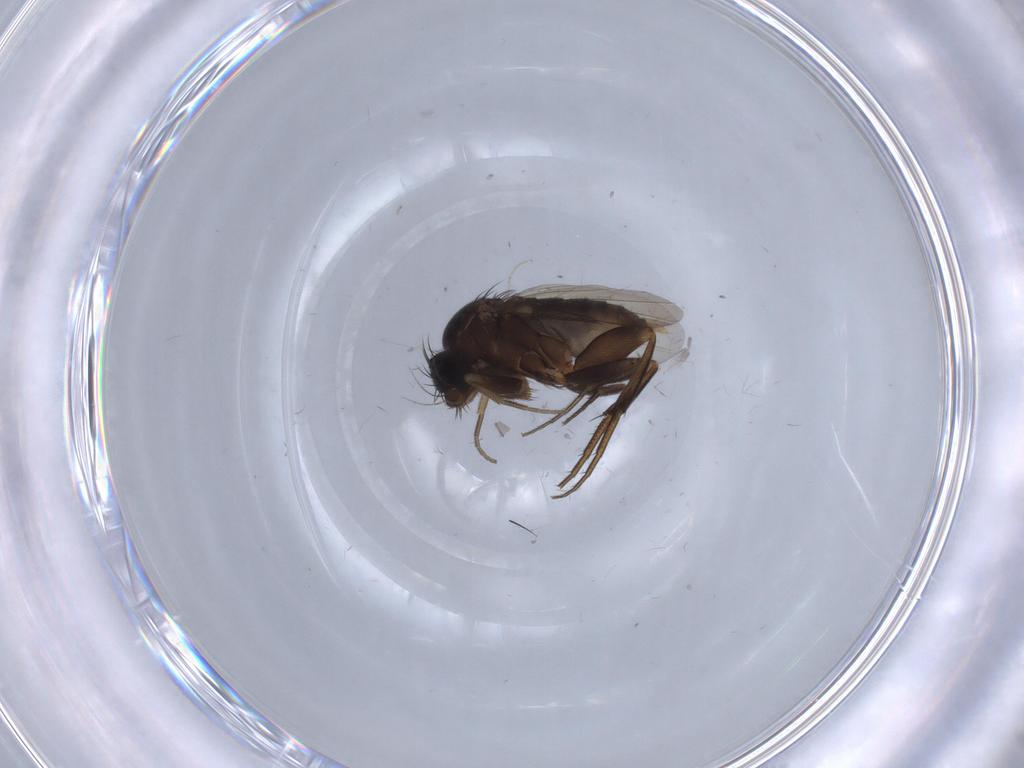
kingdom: Animalia
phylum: Arthropoda
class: Insecta
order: Diptera
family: Phoridae
